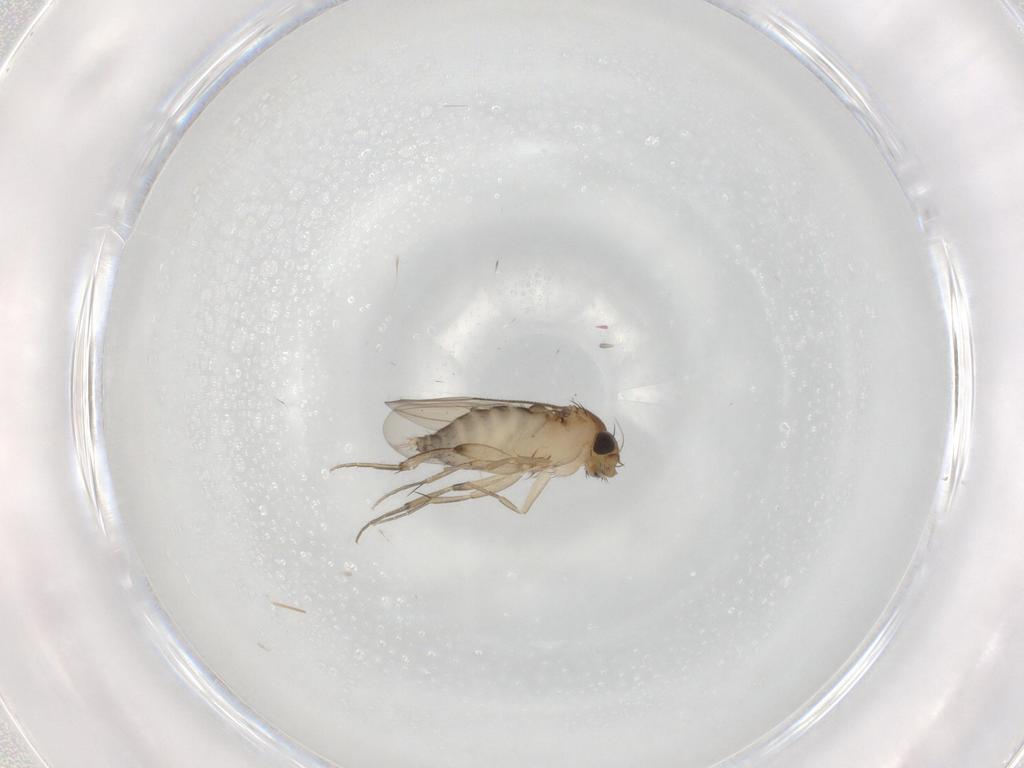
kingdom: Animalia
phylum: Arthropoda
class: Insecta
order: Diptera
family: Phoridae
